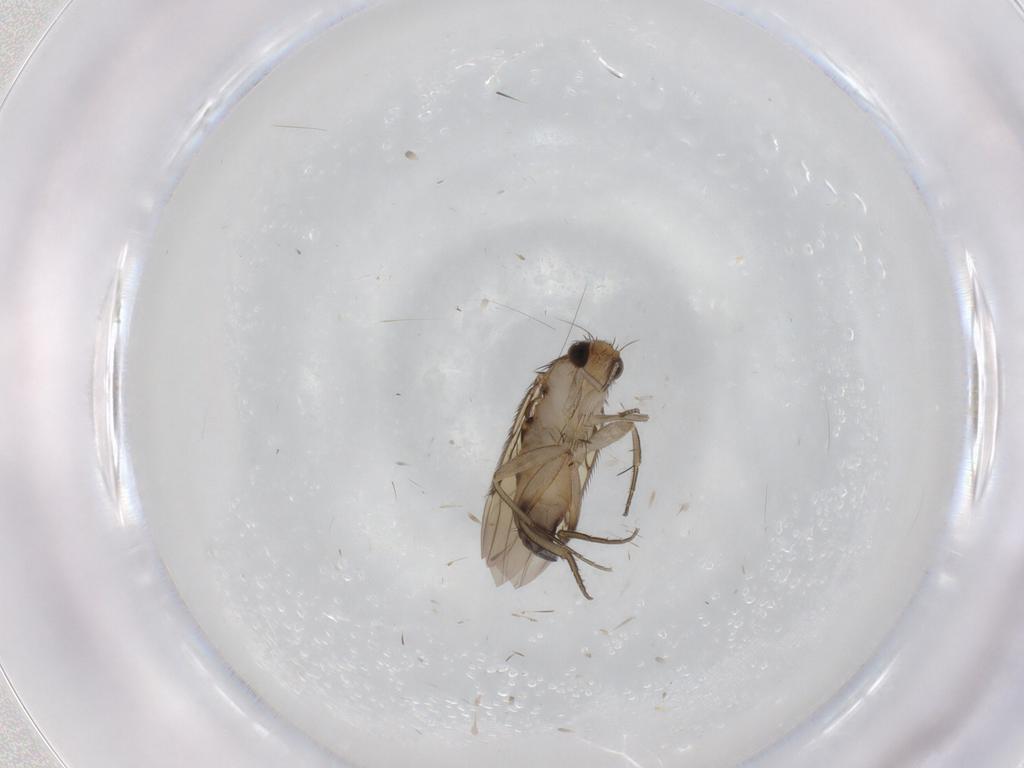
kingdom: Animalia
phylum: Arthropoda
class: Insecta
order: Diptera
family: Phoridae
